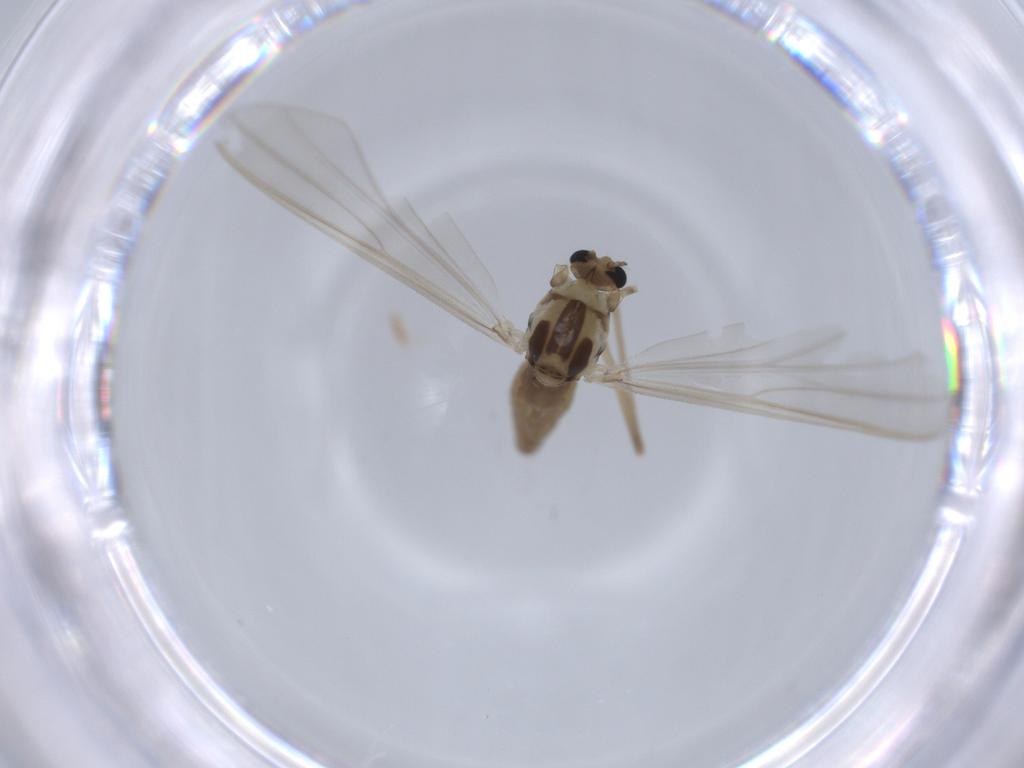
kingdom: Animalia
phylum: Arthropoda
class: Insecta
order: Diptera
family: Chironomidae
